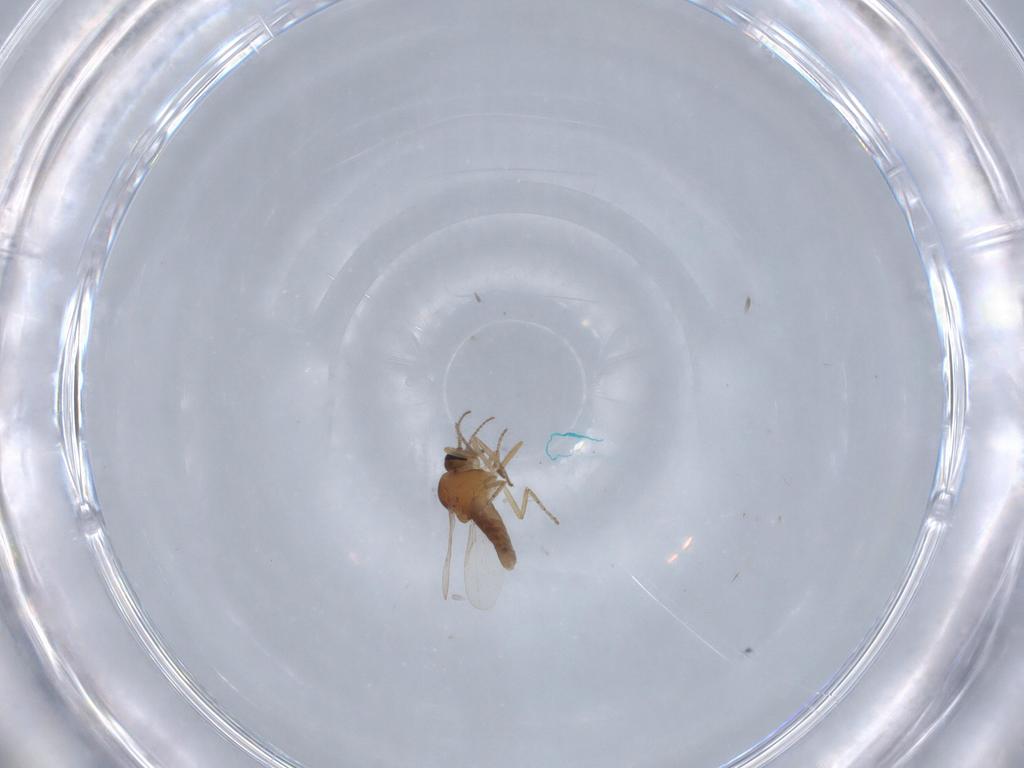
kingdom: Animalia
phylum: Arthropoda
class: Insecta
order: Diptera
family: Ceratopogonidae
